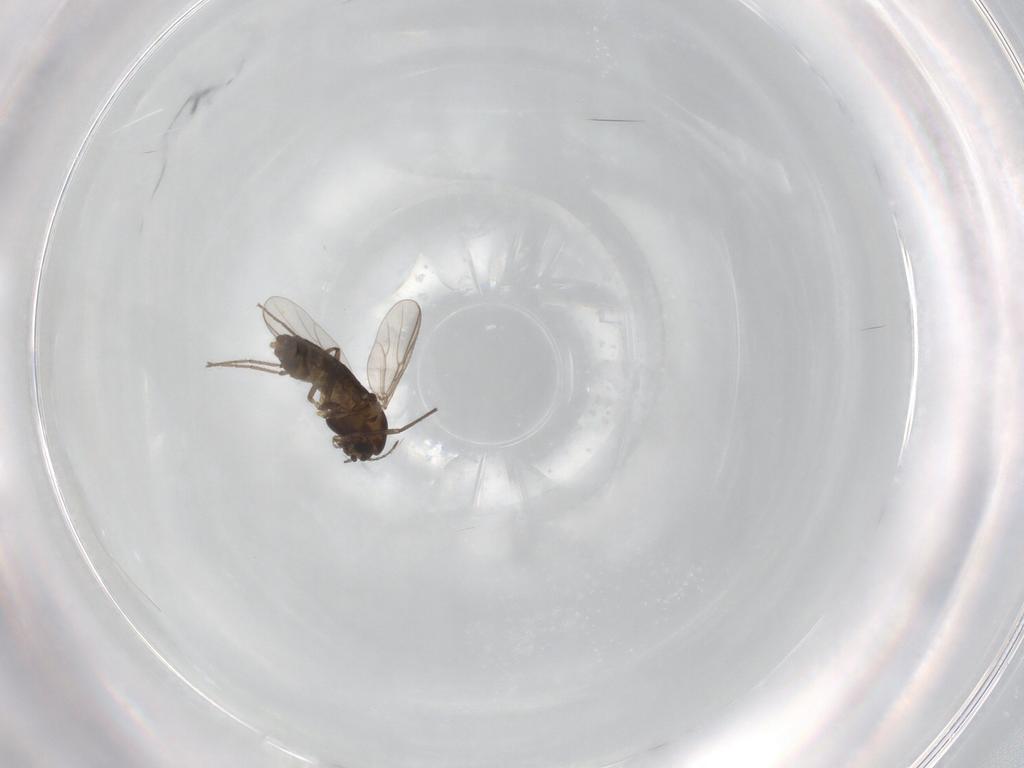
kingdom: Animalia
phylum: Arthropoda
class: Insecta
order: Diptera
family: Chironomidae
